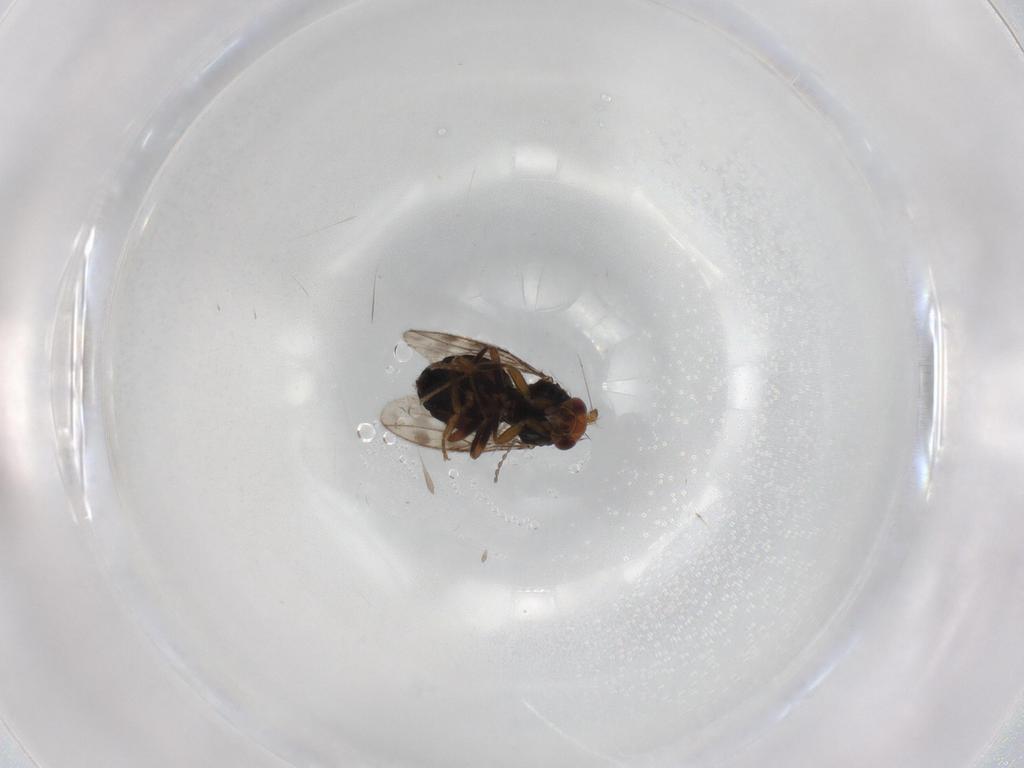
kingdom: Animalia
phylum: Arthropoda
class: Insecta
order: Diptera
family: Sphaeroceridae
